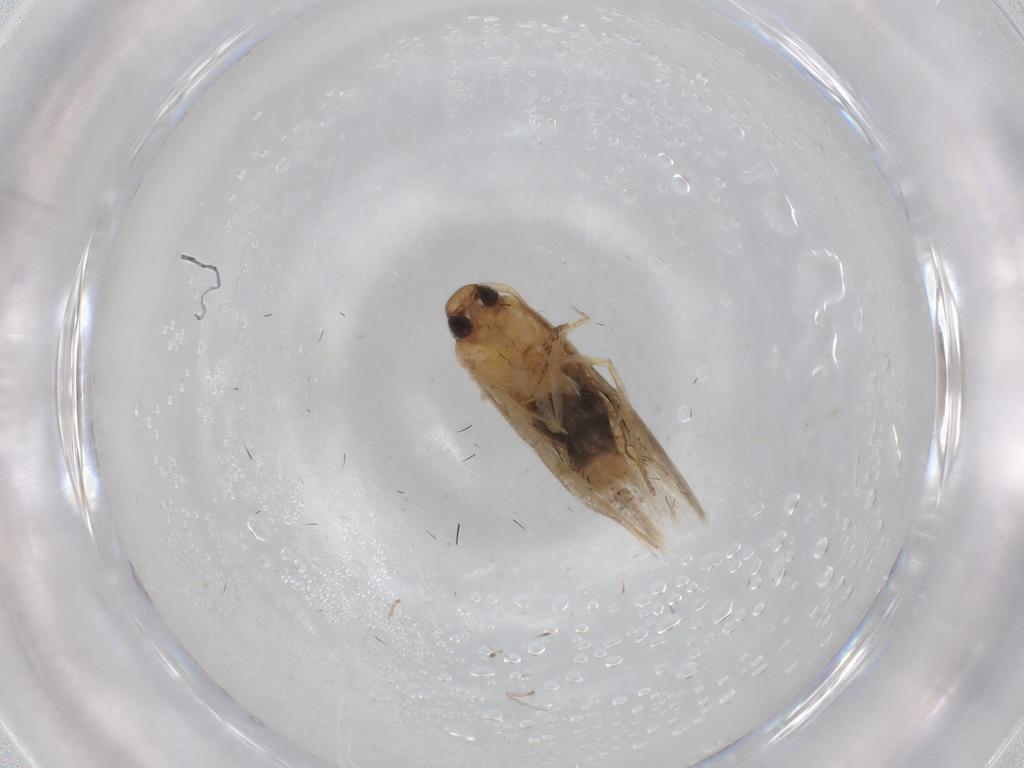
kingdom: Animalia
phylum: Arthropoda
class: Insecta
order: Lepidoptera
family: Cosmopterigidae
